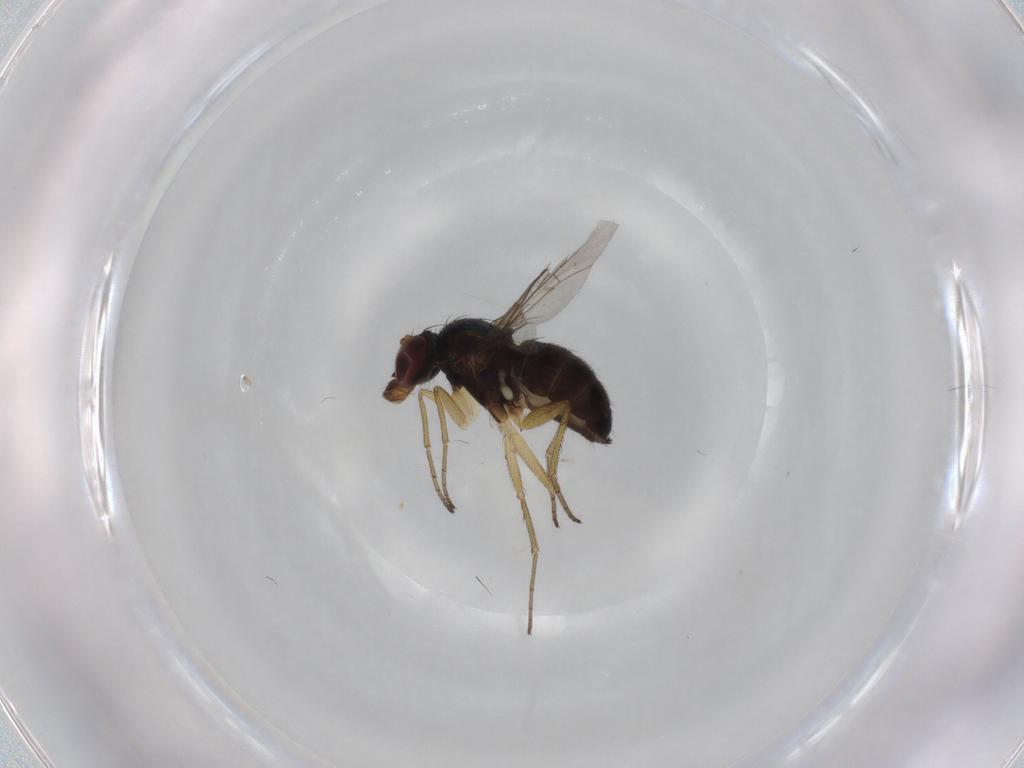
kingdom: Animalia
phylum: Arthropoda
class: Insecta
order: Diptera
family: Dolichopodidae
